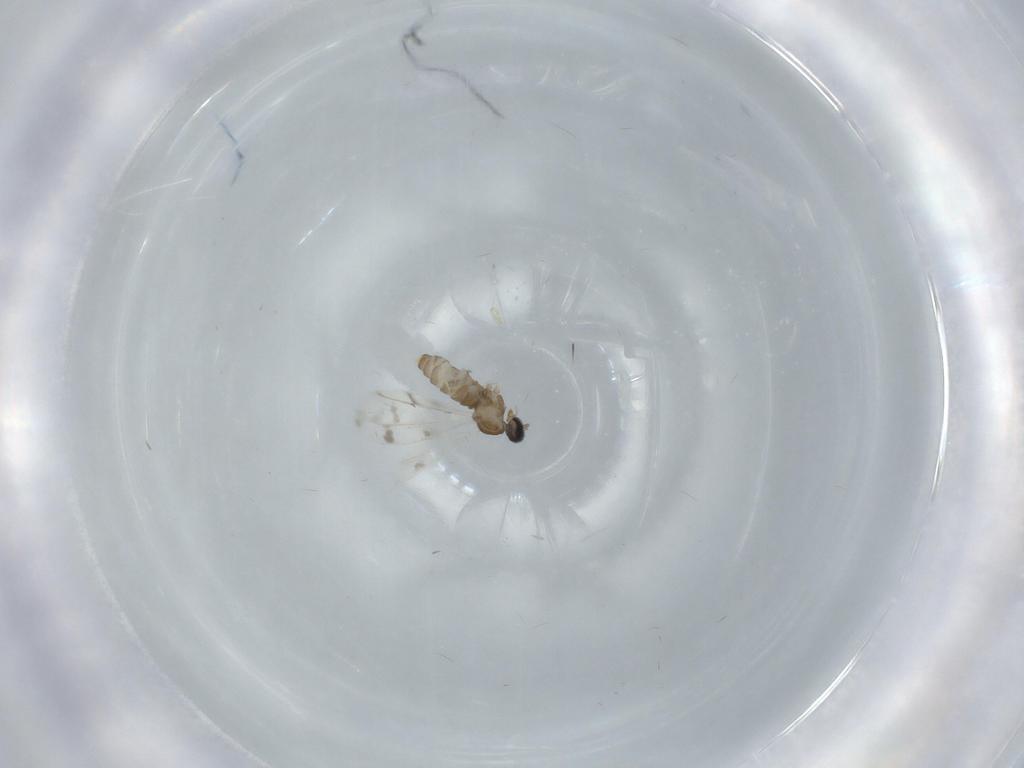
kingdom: Animalia
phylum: Arthropoda
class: Insecta
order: Diptera
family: Cecidomyiidae
